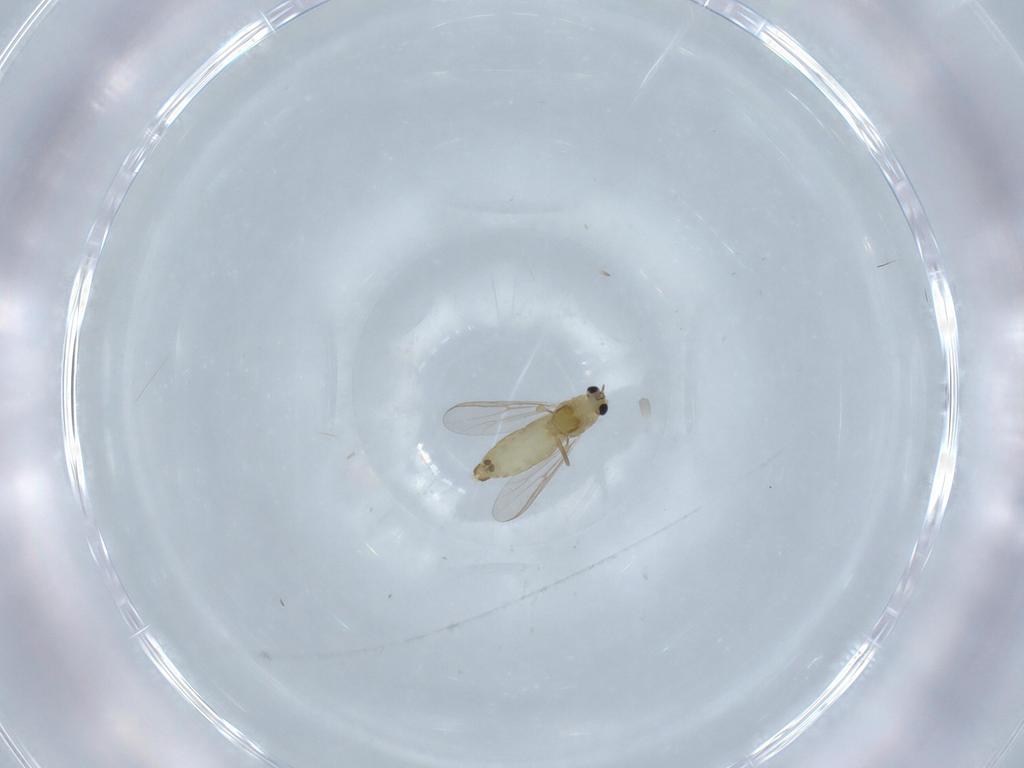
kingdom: Animalia
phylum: Arthropoda
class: Insecta
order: Diptera
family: Chironomidae
